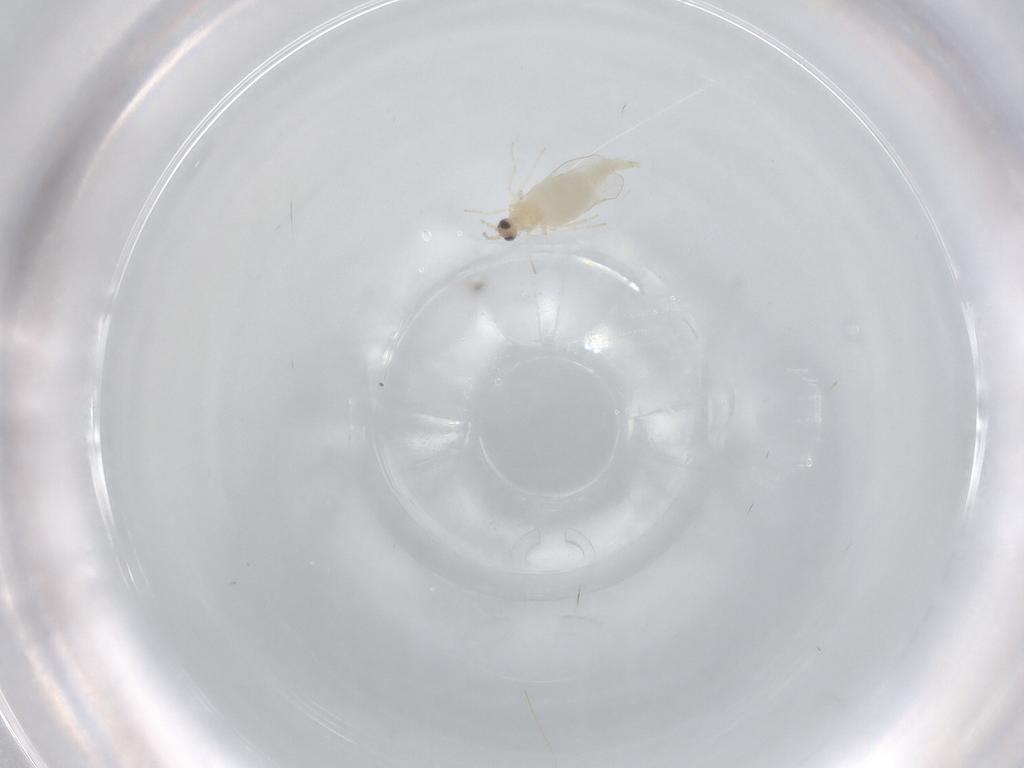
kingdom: Animalia
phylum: Arthropoda
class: Insecta
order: Diptera
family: Cecidomyiidae
